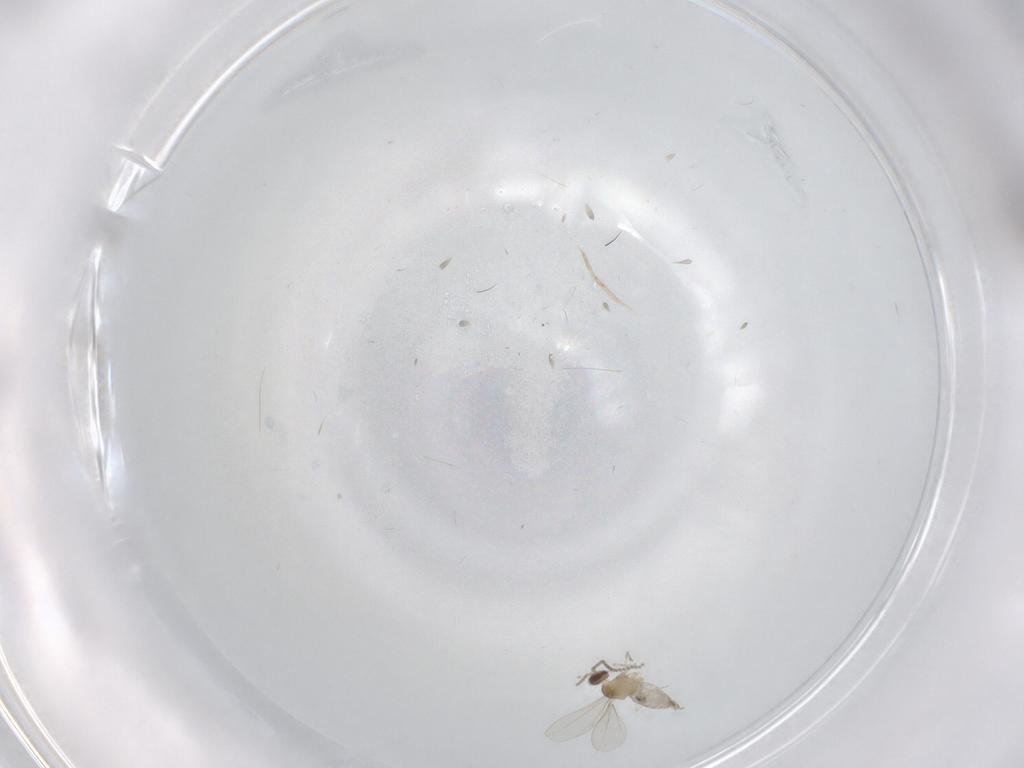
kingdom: Animalia
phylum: Arthropoda
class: Insecta
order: Diptera
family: Cecidomyiidae
